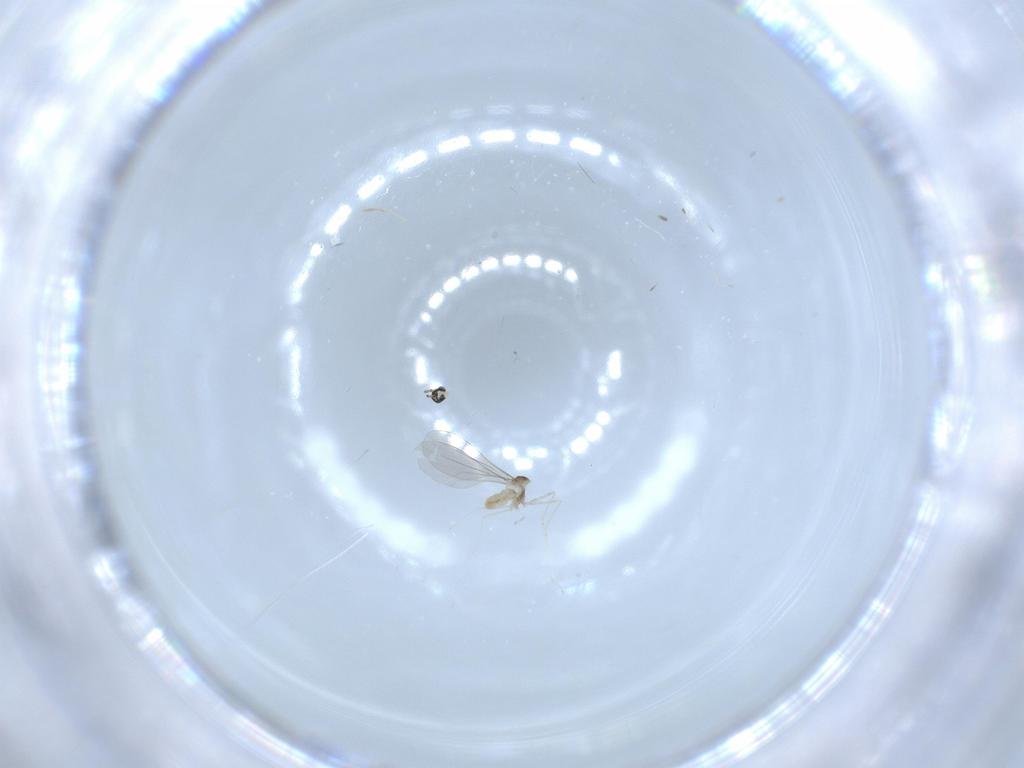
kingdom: Animalia
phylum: Arthropoda
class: Insecta
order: Diptera
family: Cecidomyiidae
